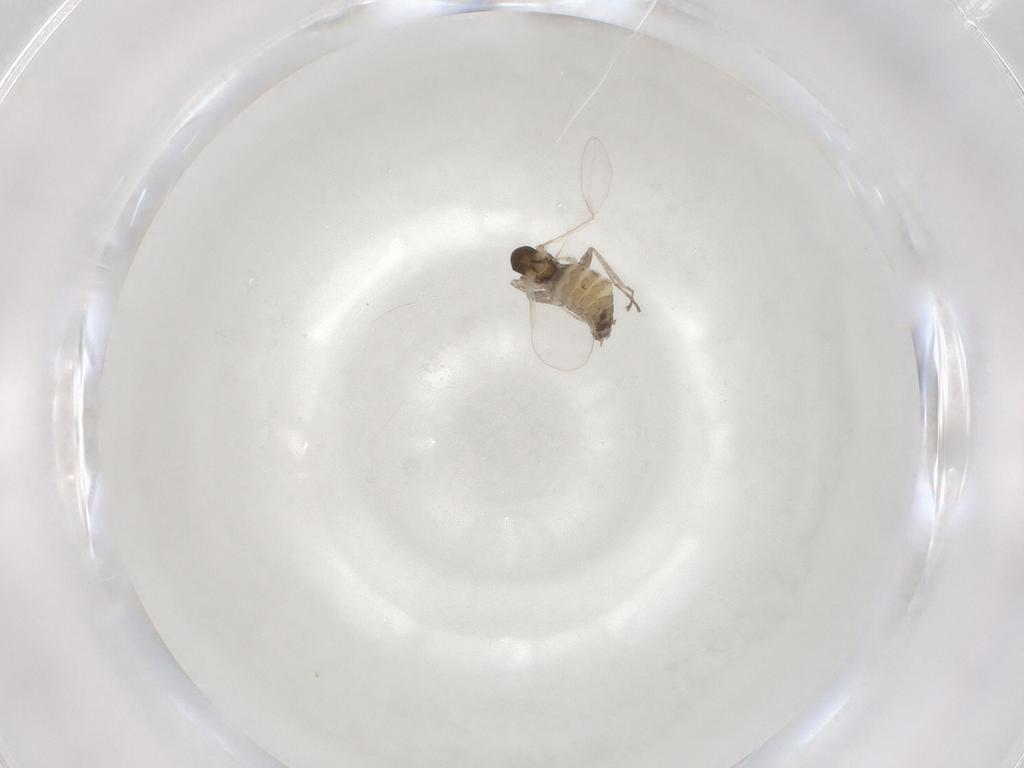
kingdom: Animalia
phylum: Arthropoda
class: Insecta
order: Diptera
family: Cecidomyiidae
